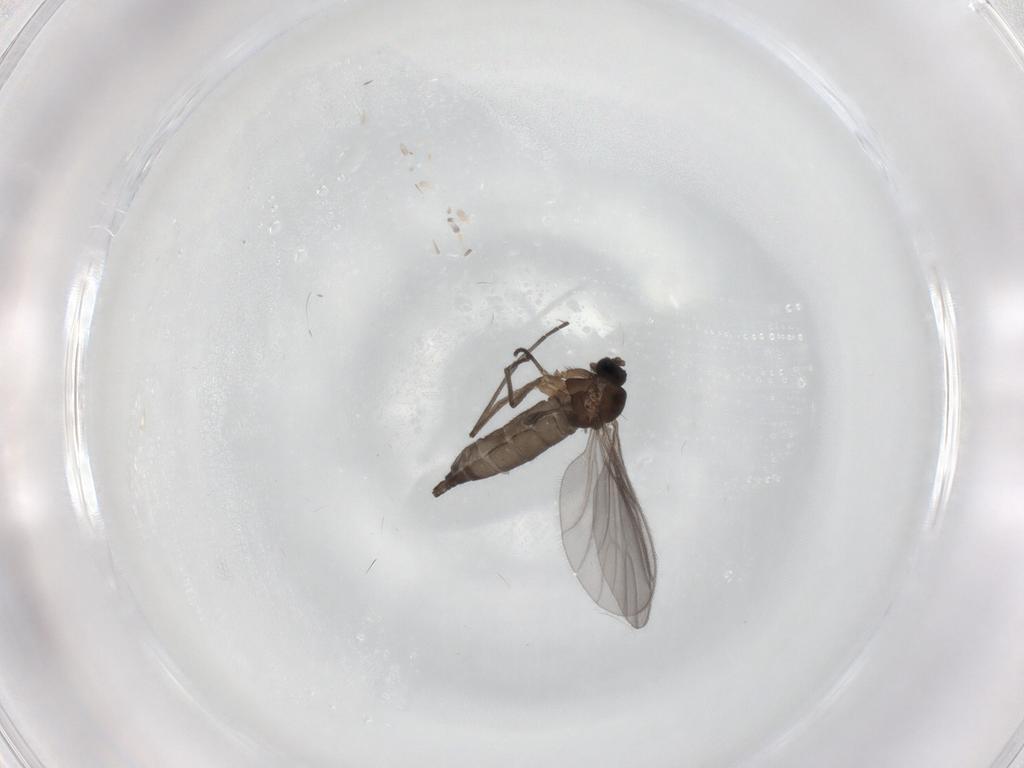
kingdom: Animalia
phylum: Arthropoda
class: Insecta
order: Diptera
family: Sciaridae
